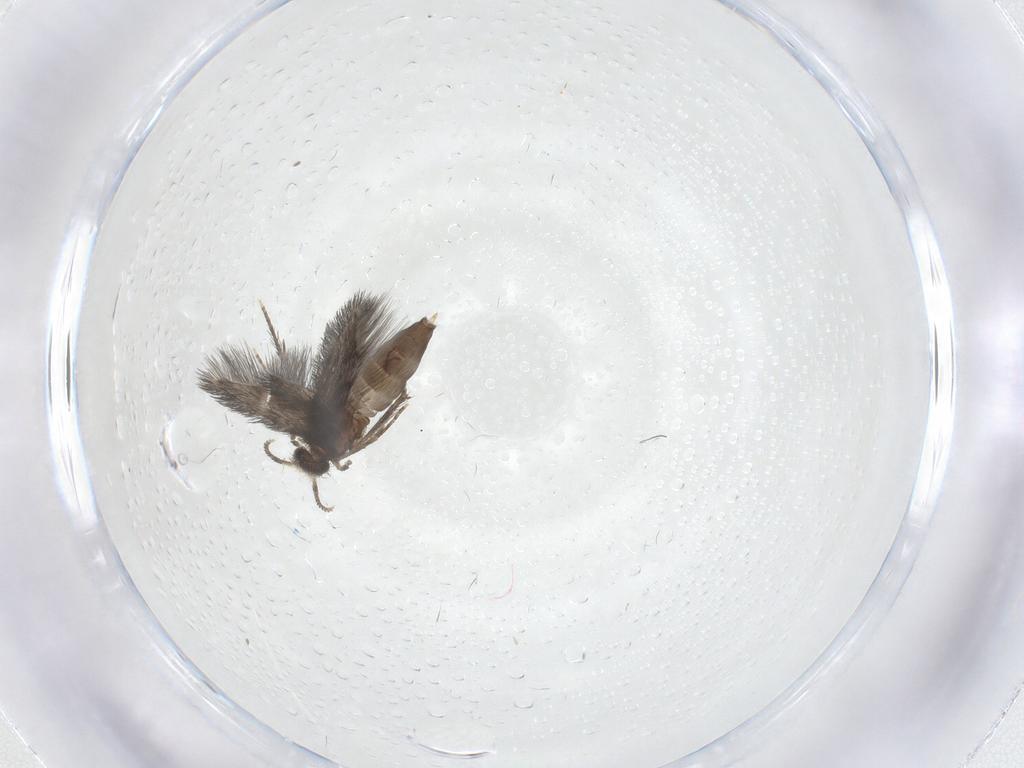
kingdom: Animalia
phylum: Arthropoda
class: Insecta
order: Trichoptera
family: Hydroptilidae
